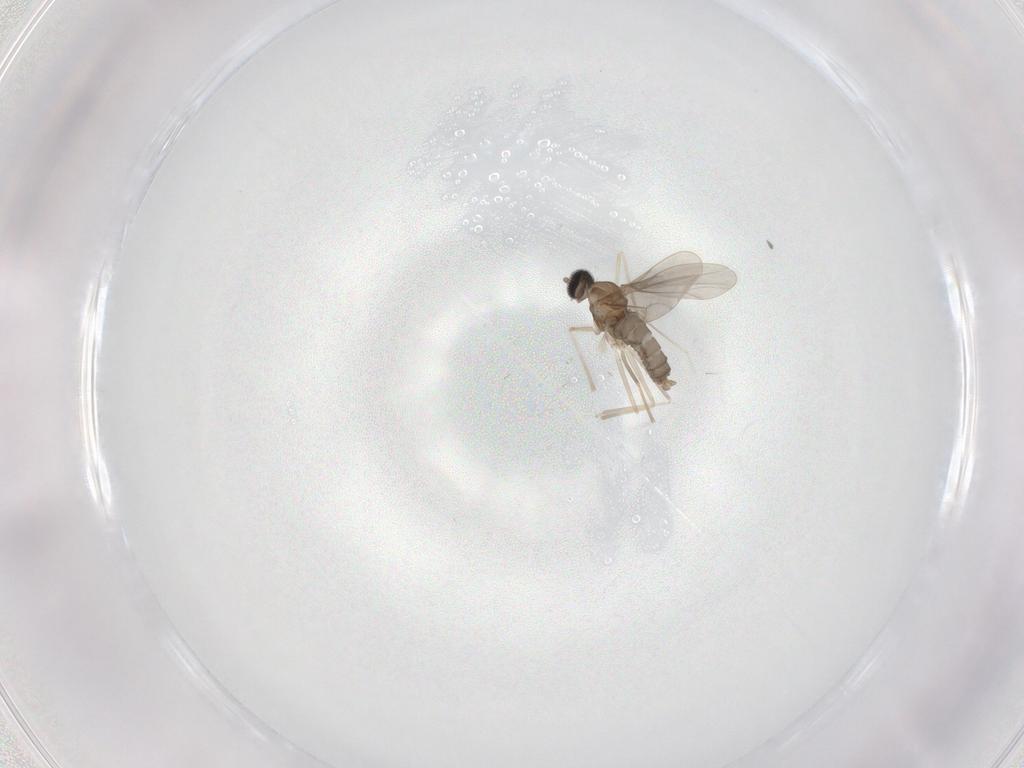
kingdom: Animalia
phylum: Arthropoda
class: Insecta
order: Diptera
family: Cecidomyiidae
